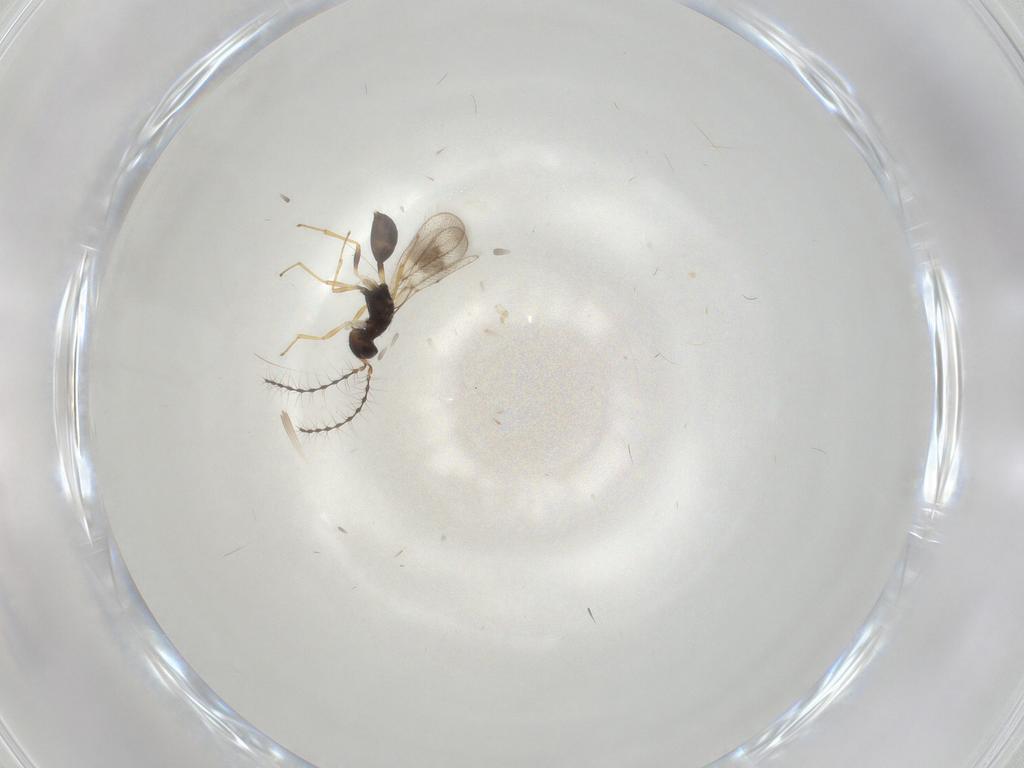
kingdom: Animalia
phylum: Arthropoda
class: Insecta
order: Hymenoptera
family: Diparidae
